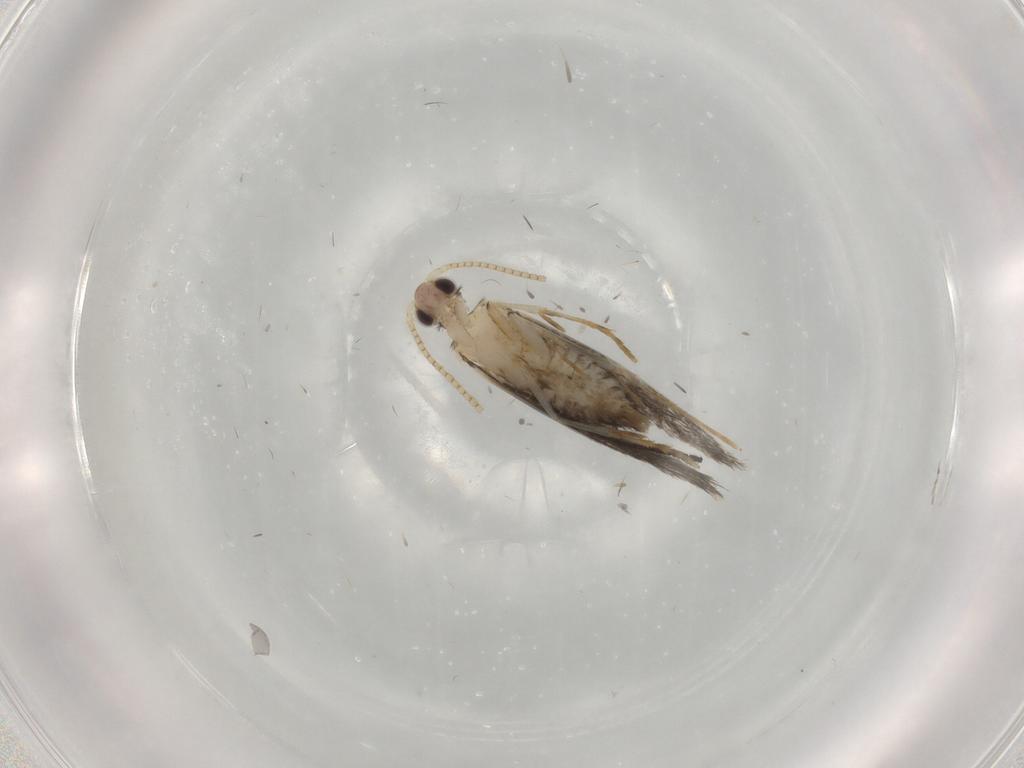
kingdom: Animalia
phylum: Arthropoda
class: Insecta
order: Lepidoptera
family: Tineidae
